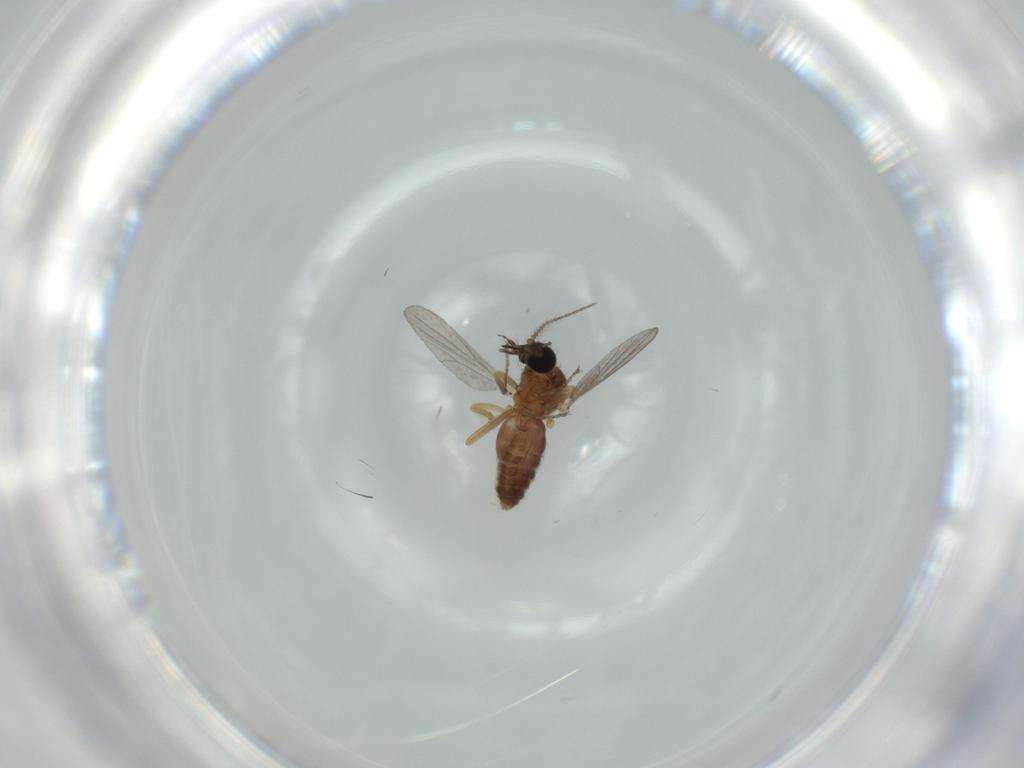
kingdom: Animalia
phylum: Arthropoda
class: Insecta
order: Diptera
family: Ceratopogonidae
